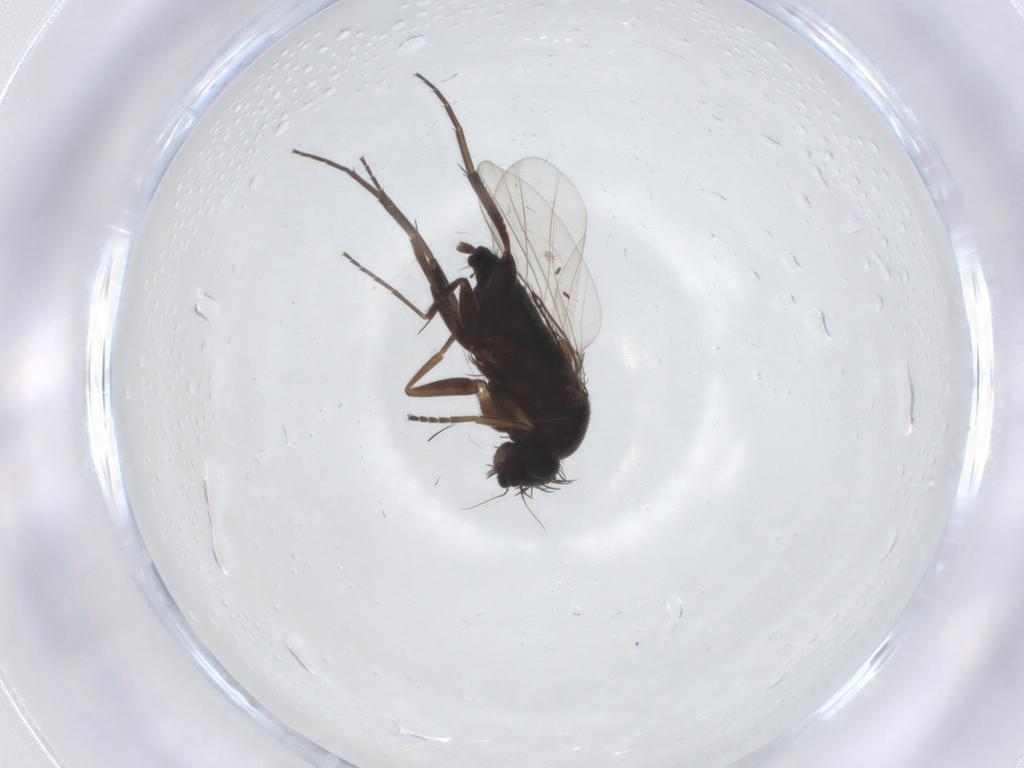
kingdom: Animalia
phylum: Arthropoda
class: Insecta
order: Diptera
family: Phoridae
